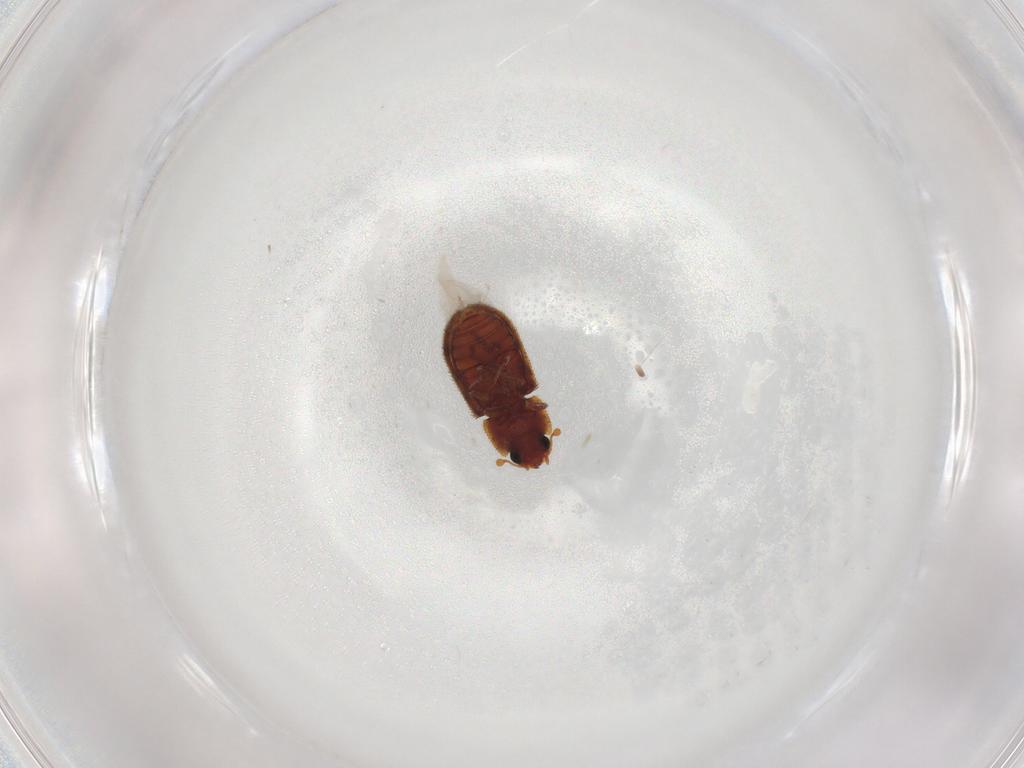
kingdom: Animalia
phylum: Arthropoda
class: Insecta
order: Coleoptera
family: Zopheridae
